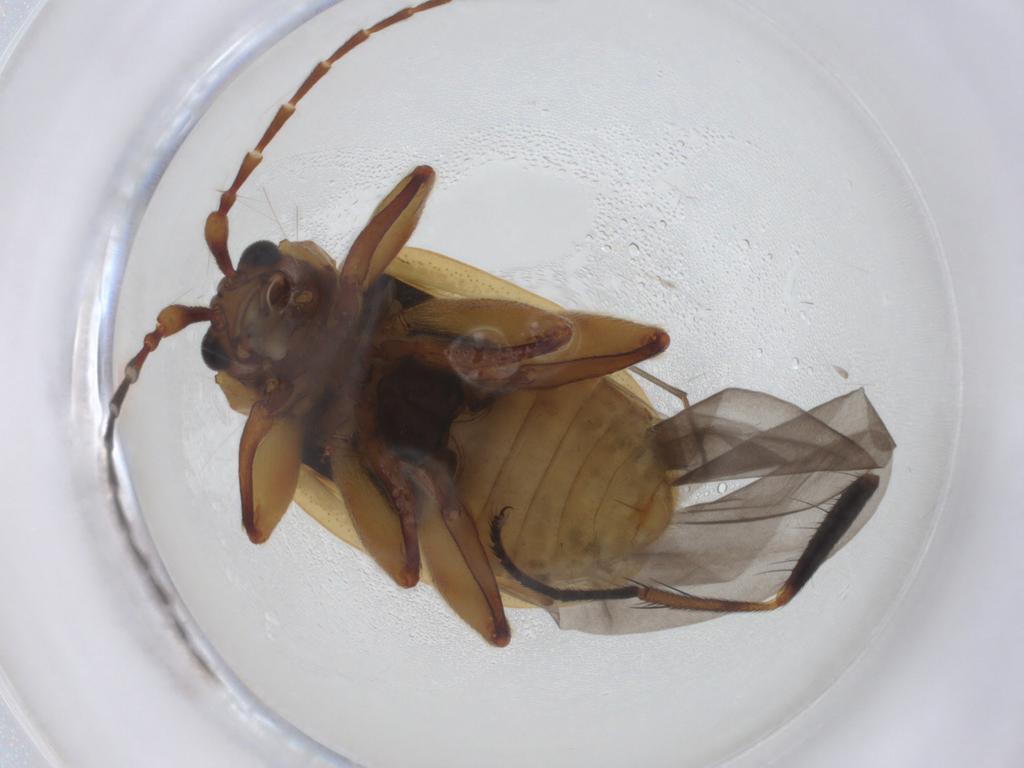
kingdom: Animalia
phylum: Arthropoda
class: Insecta
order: Coleoptera
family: Chrysomelidae
